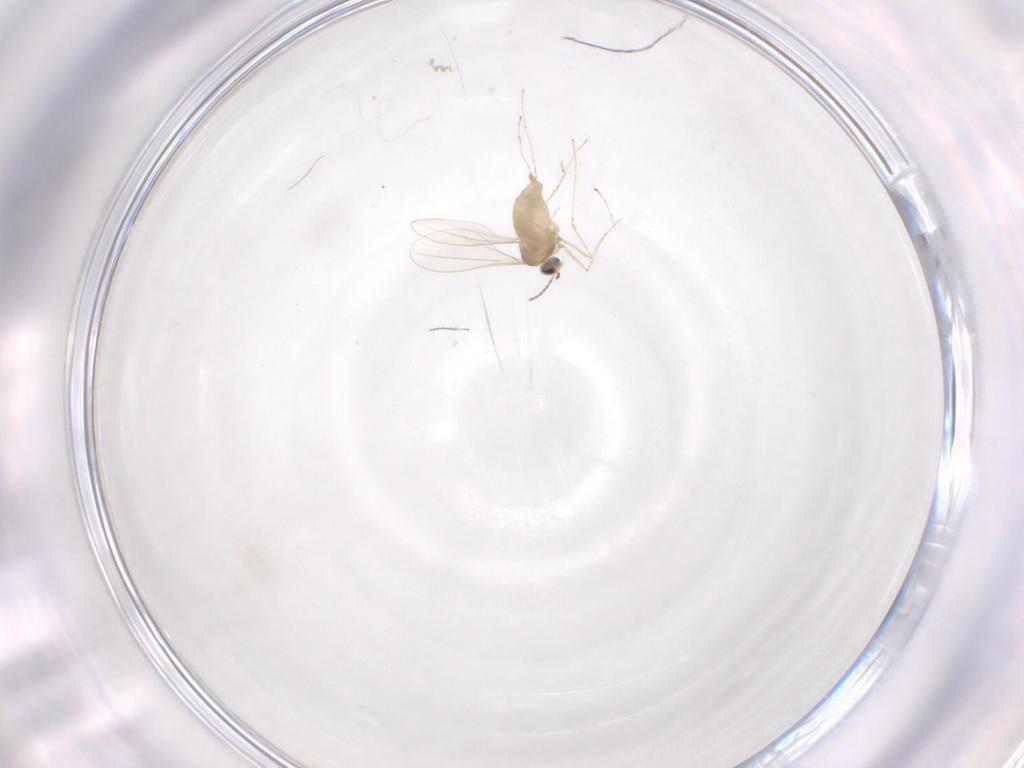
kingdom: Animalia
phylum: Arthropoda
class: Insecta
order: Diptera
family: Cecidomyiidae
